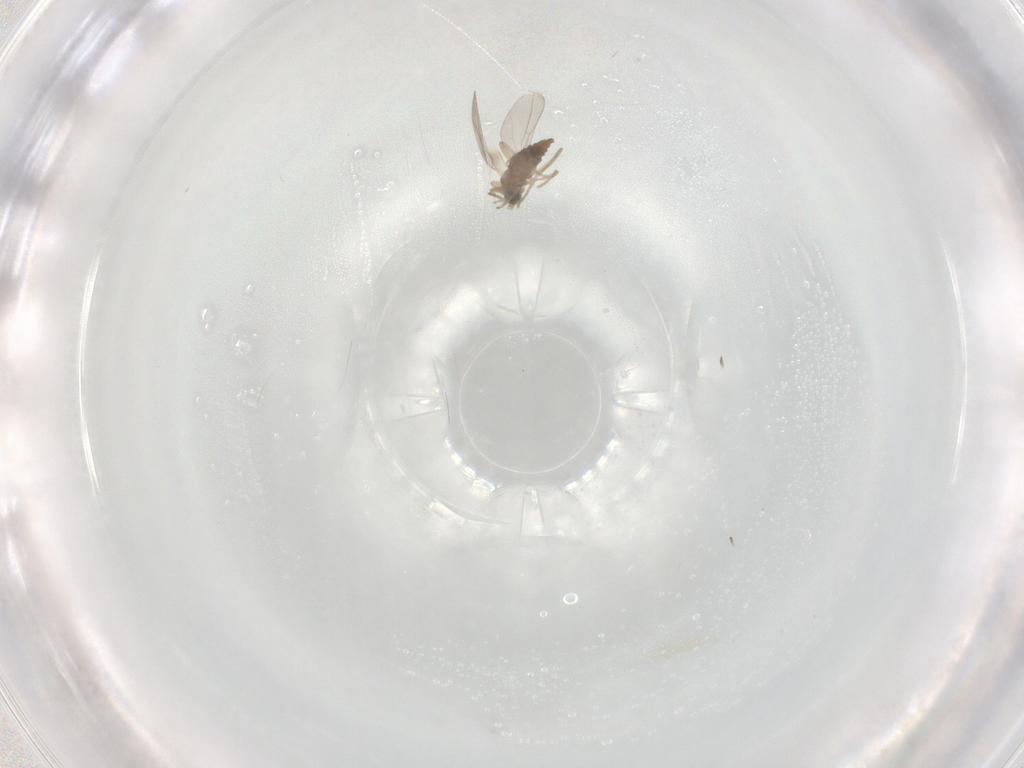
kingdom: Animalia
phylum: Arthropoda
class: Insecta
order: Diptera
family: Cecidomyiidae
